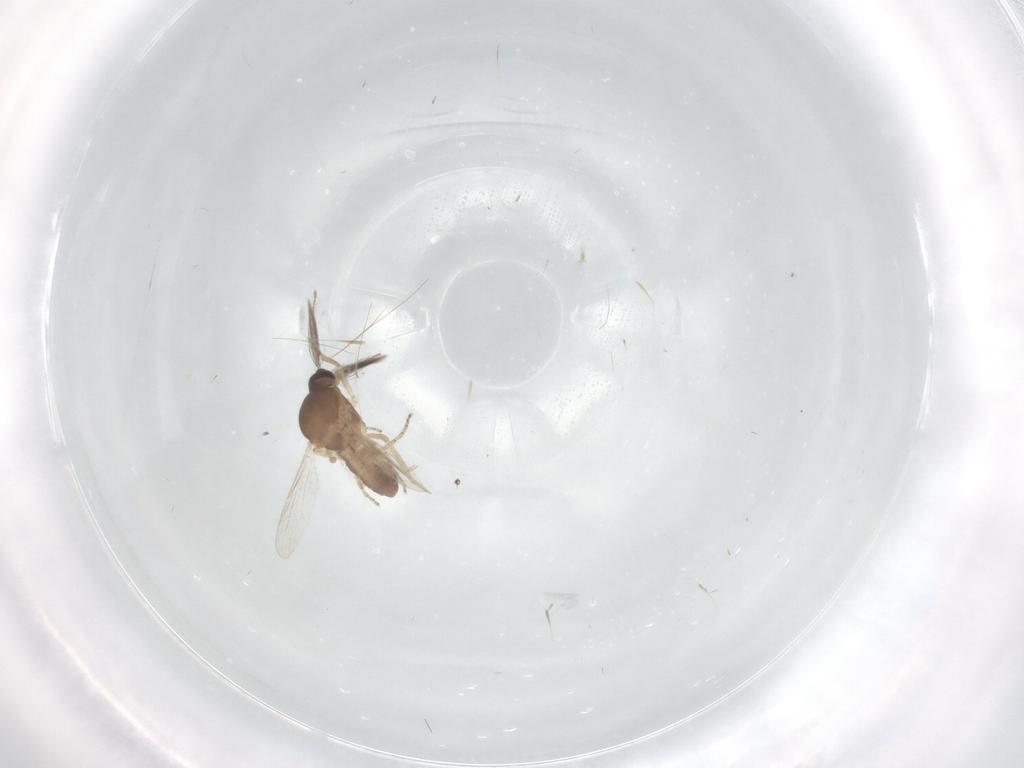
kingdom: Animalia
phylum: Arthropoda
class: Insecta
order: Diptera
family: Ceratopogonidae
